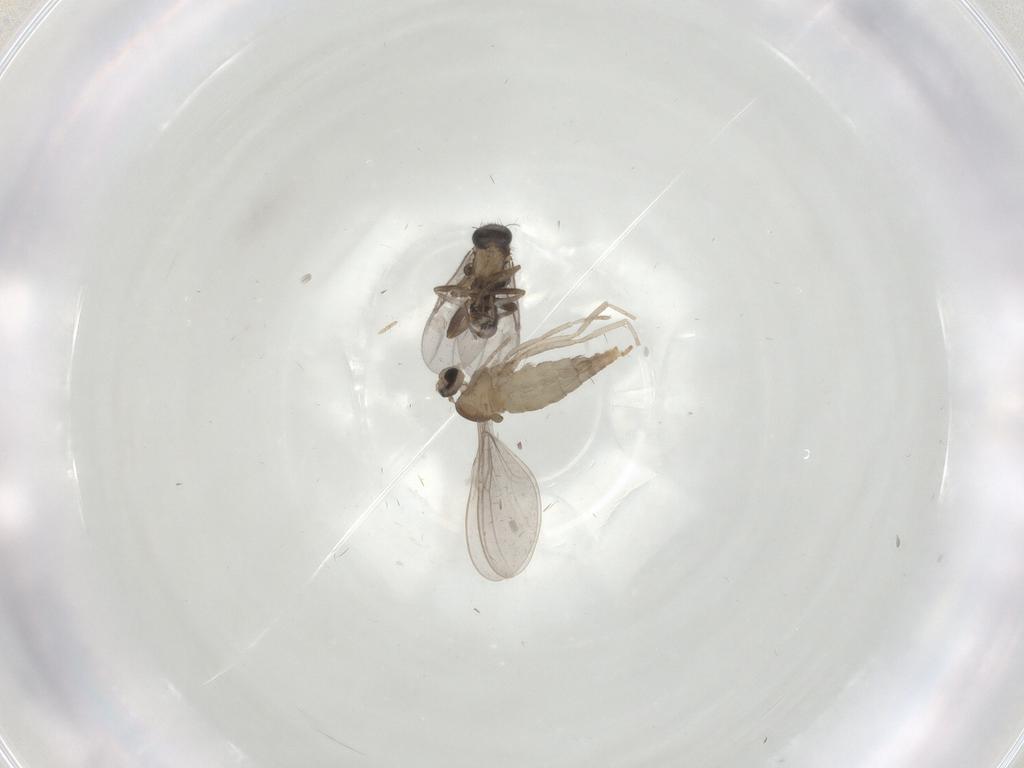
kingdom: Animalia
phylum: Arthropoda
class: Insecta
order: Diptera
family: Cecidomyiidae
